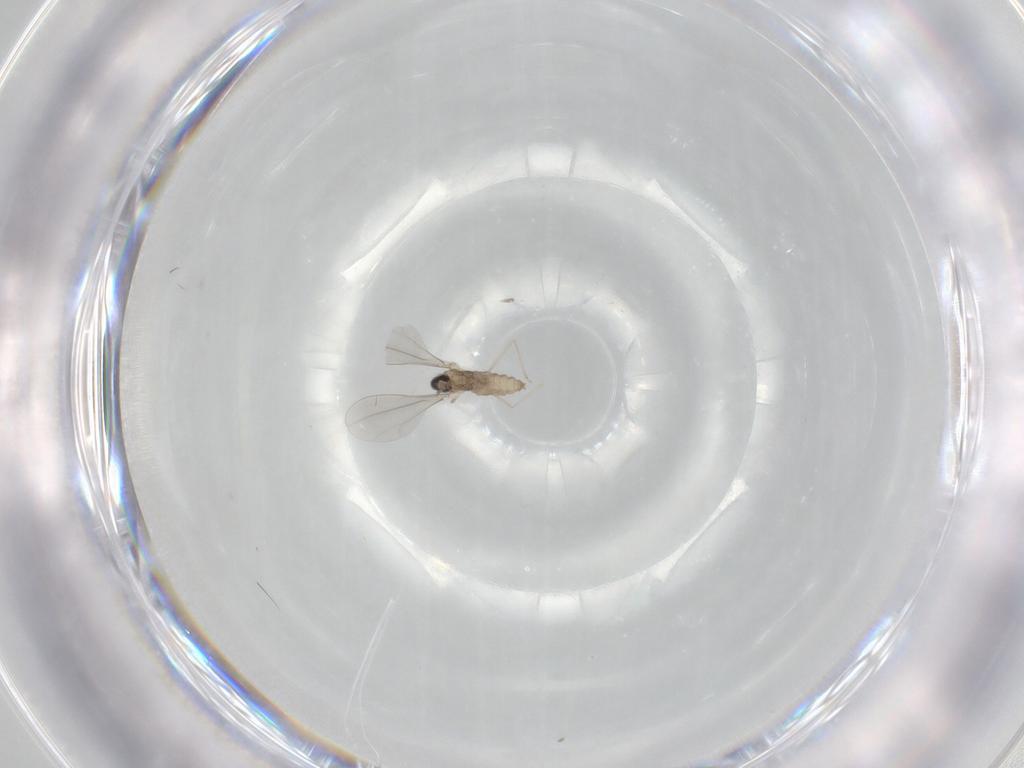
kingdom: Animalia
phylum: Arthropoda
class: Insecta
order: Diptera
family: Cecidomyiidae
